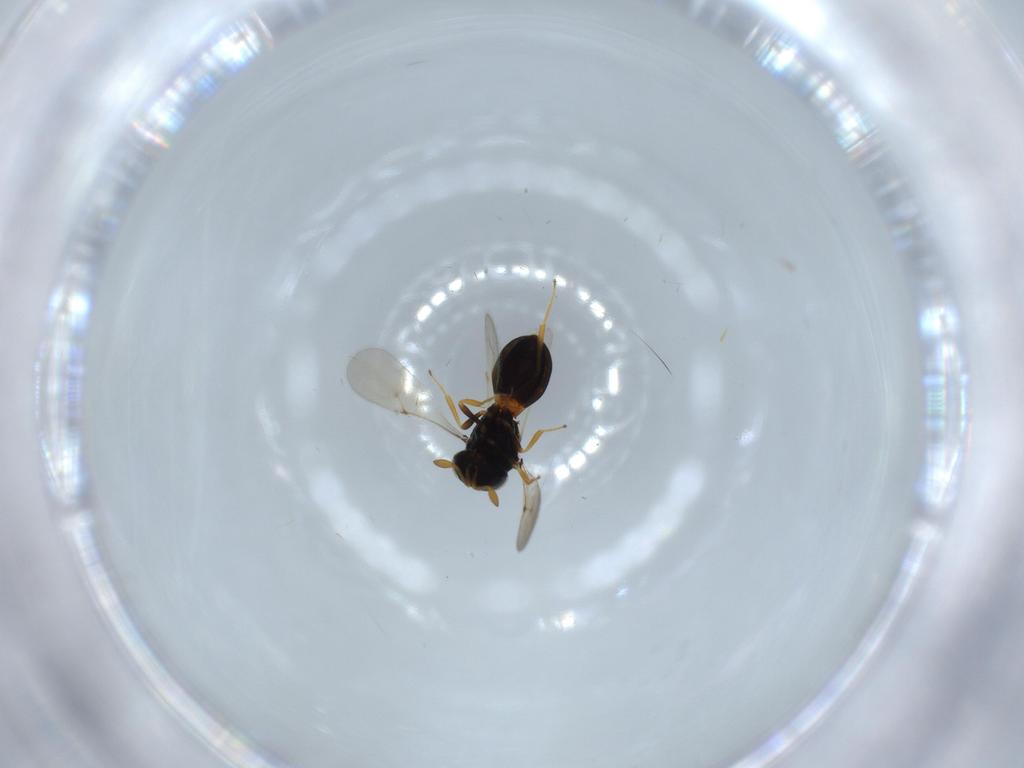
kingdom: Animalia
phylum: Arthropoda
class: Insecta
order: Hymenoptera
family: Scelionidae
